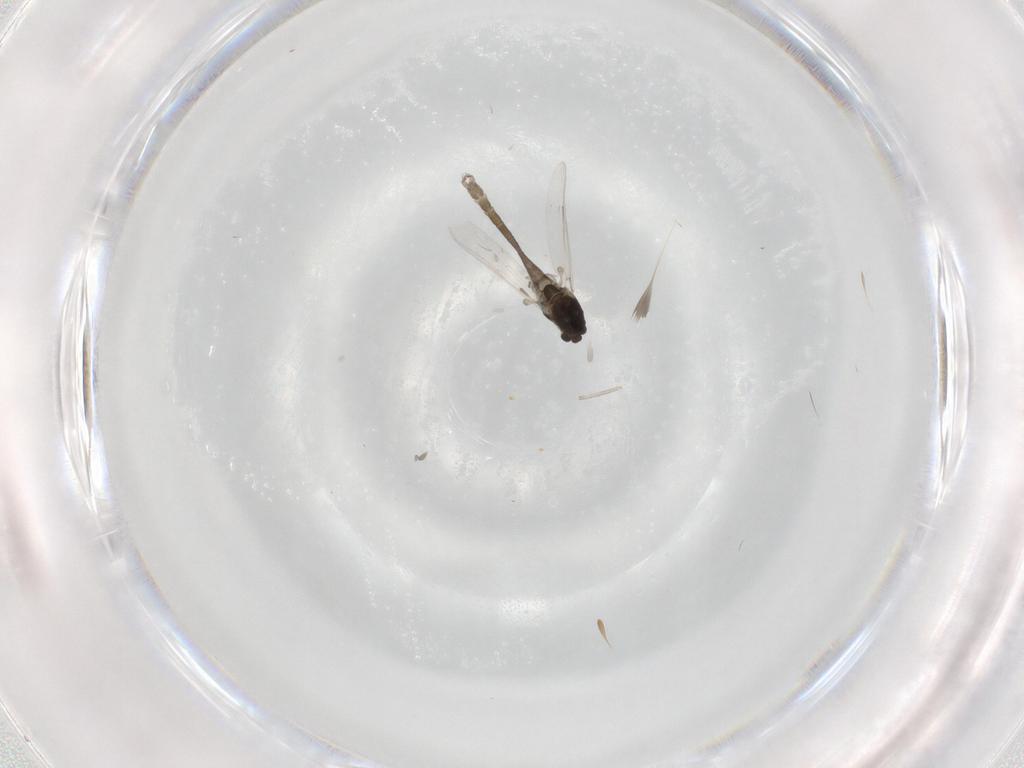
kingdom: Animalia
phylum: Arthropoda
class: Insecta
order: Diptera
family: Chironomidae
